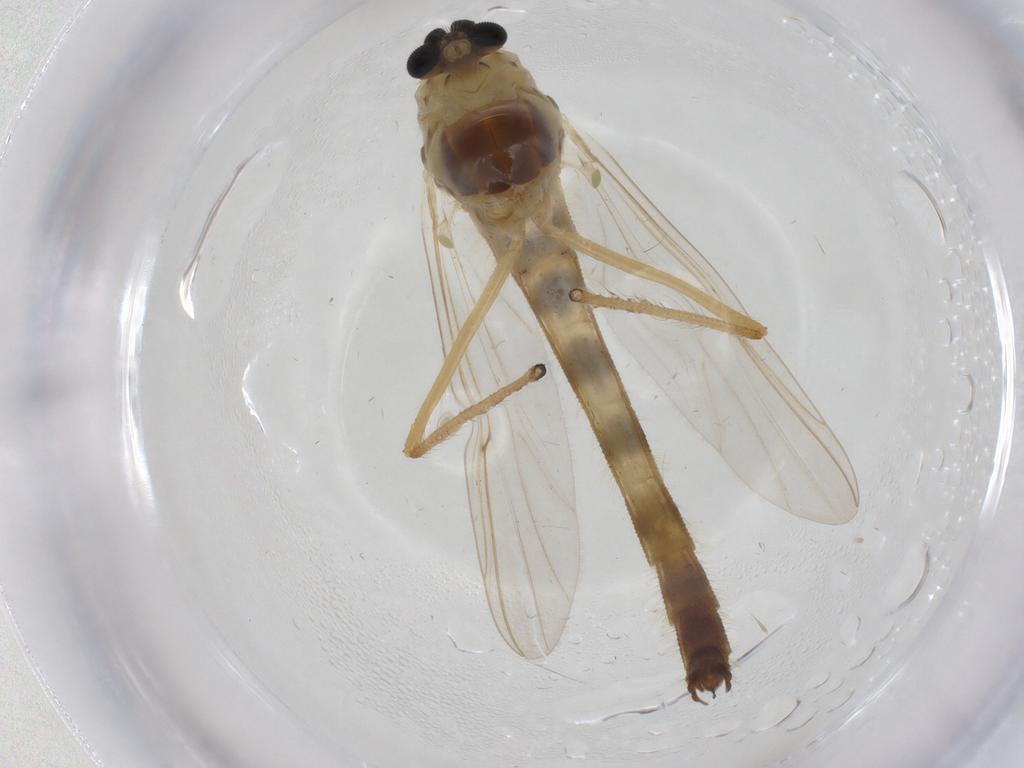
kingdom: Animalia
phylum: Arthropoda
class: Insecta
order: Diptera
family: Chironomidae
